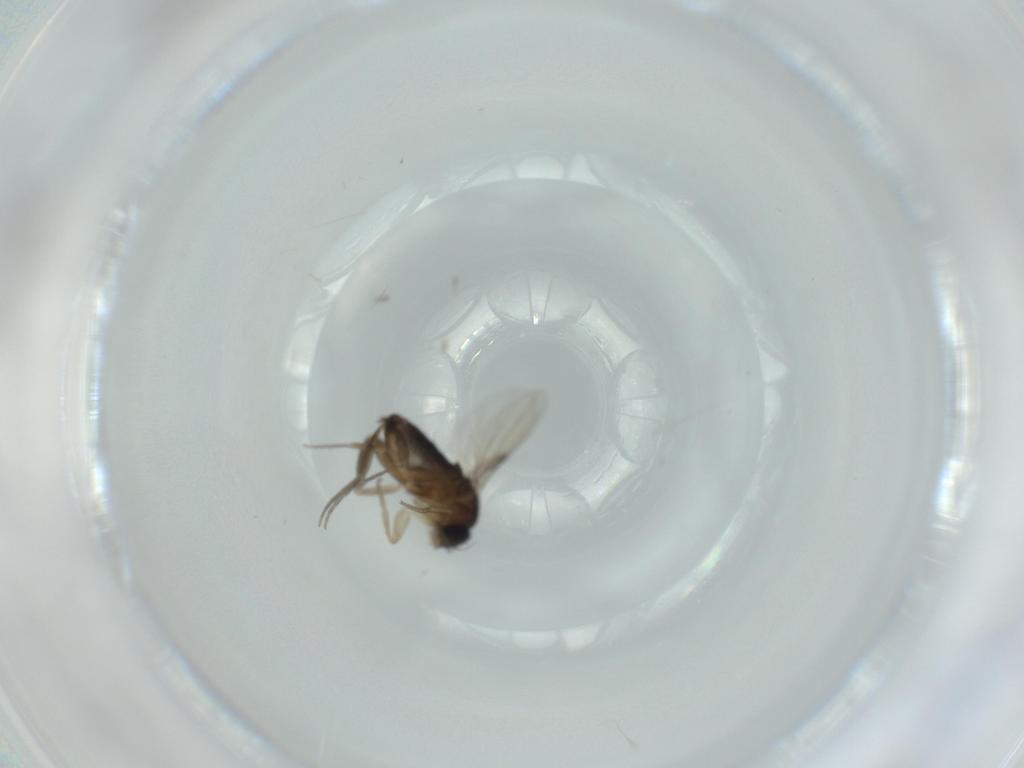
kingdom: Animalia
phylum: Arthropoda
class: Insecta
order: Diptera
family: Phoridae
